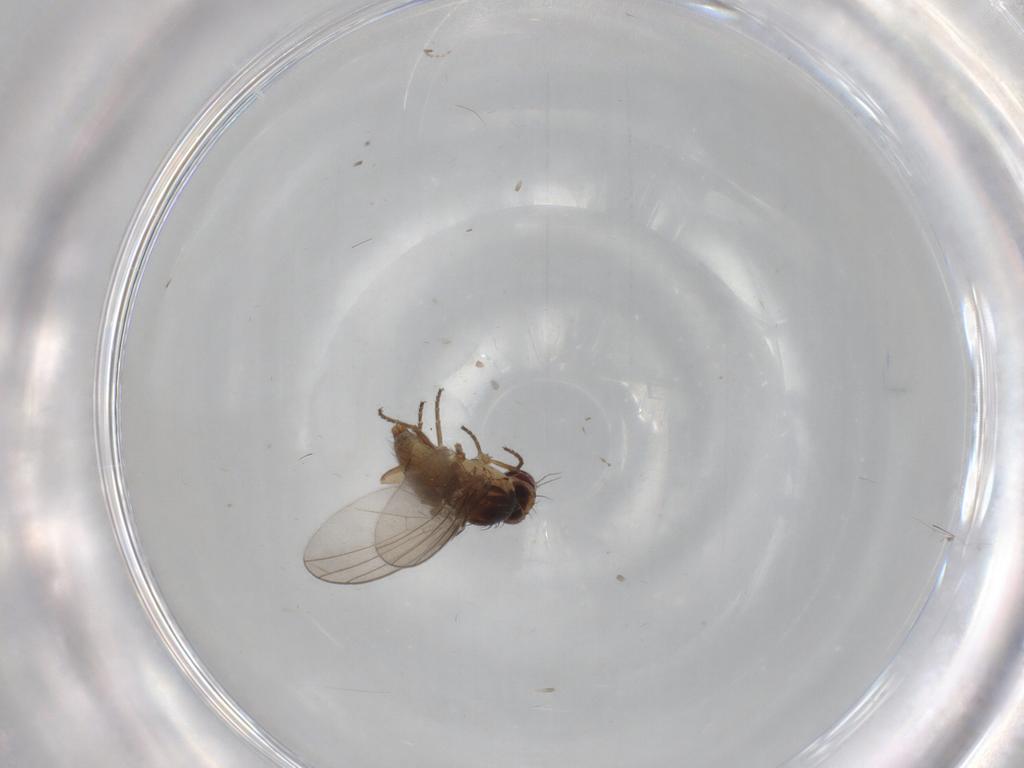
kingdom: Animalia
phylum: Arthropoda
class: Insecta
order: Diptera
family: Agromyzidae
